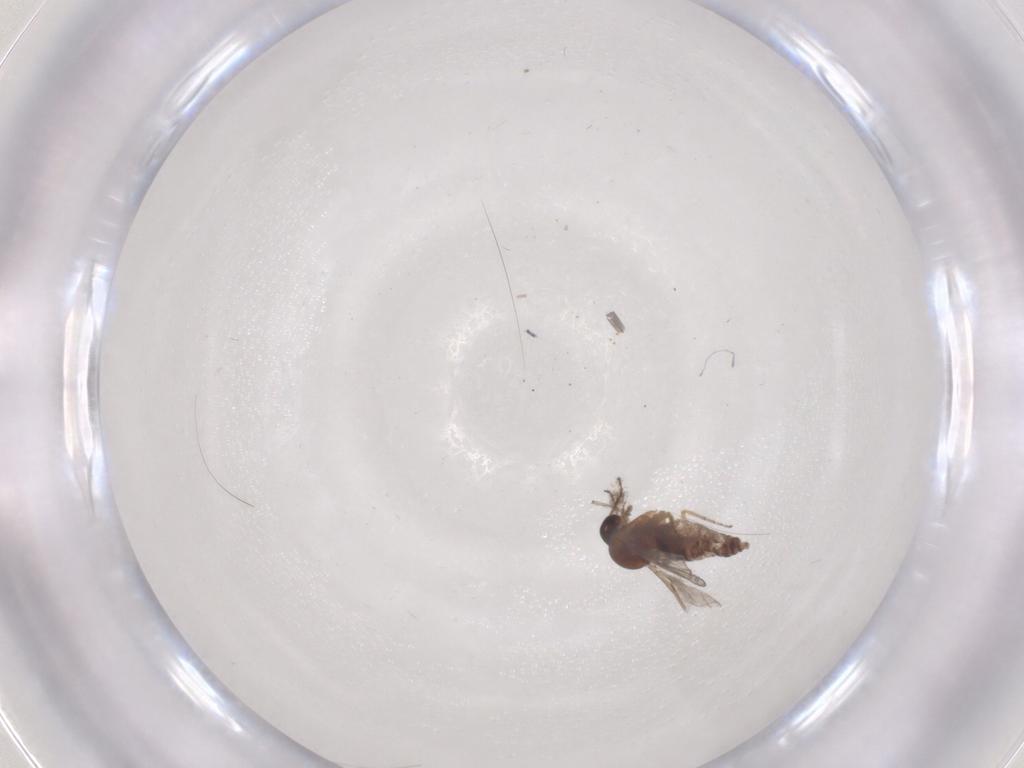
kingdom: Animalia
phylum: Arthropoda
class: Insecta
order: Diptera
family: Ceratopogonidae
